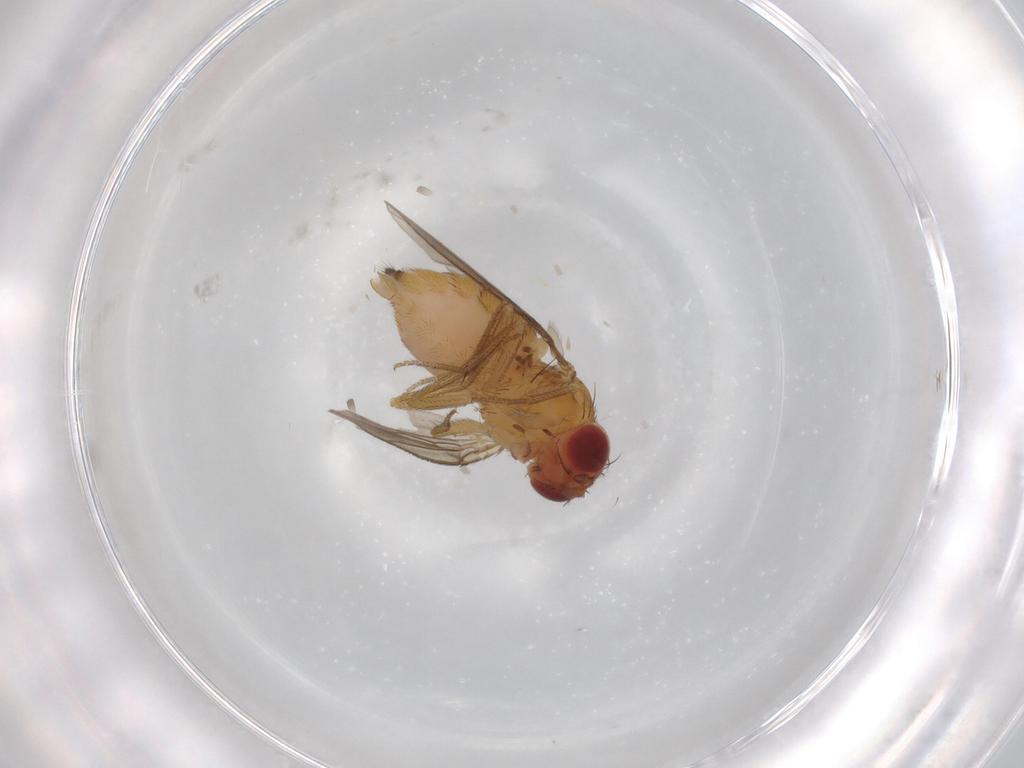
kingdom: Animalia
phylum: Arthropoda
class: Insecta
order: Diptera
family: Drosophilidae
